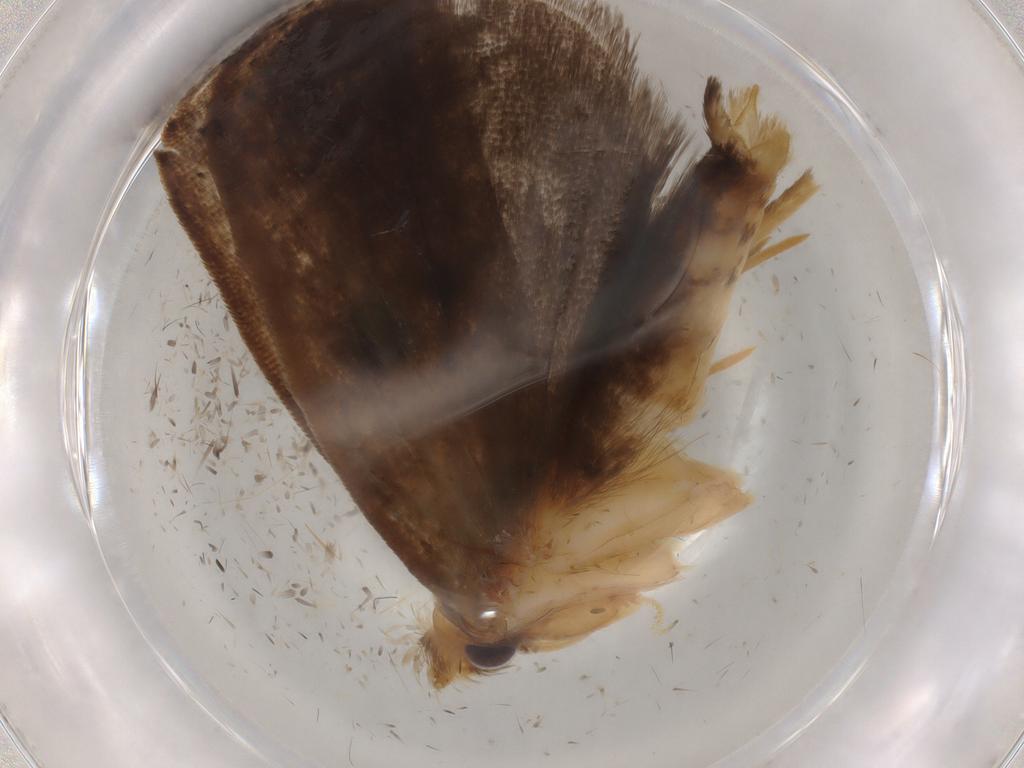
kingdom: Animalia
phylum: Arthropoda
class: Insecta
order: Lepidoptera
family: Depressariidae
